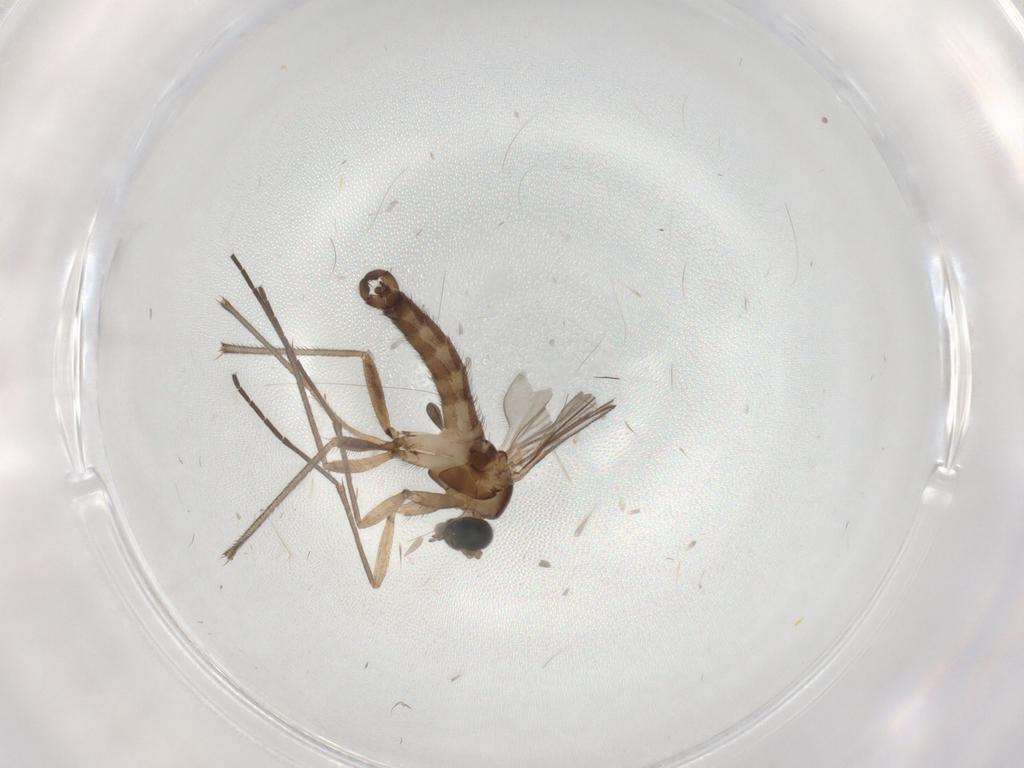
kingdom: Animalia
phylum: Arthropoda
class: Insecta
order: Diptera
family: Sciaridae
